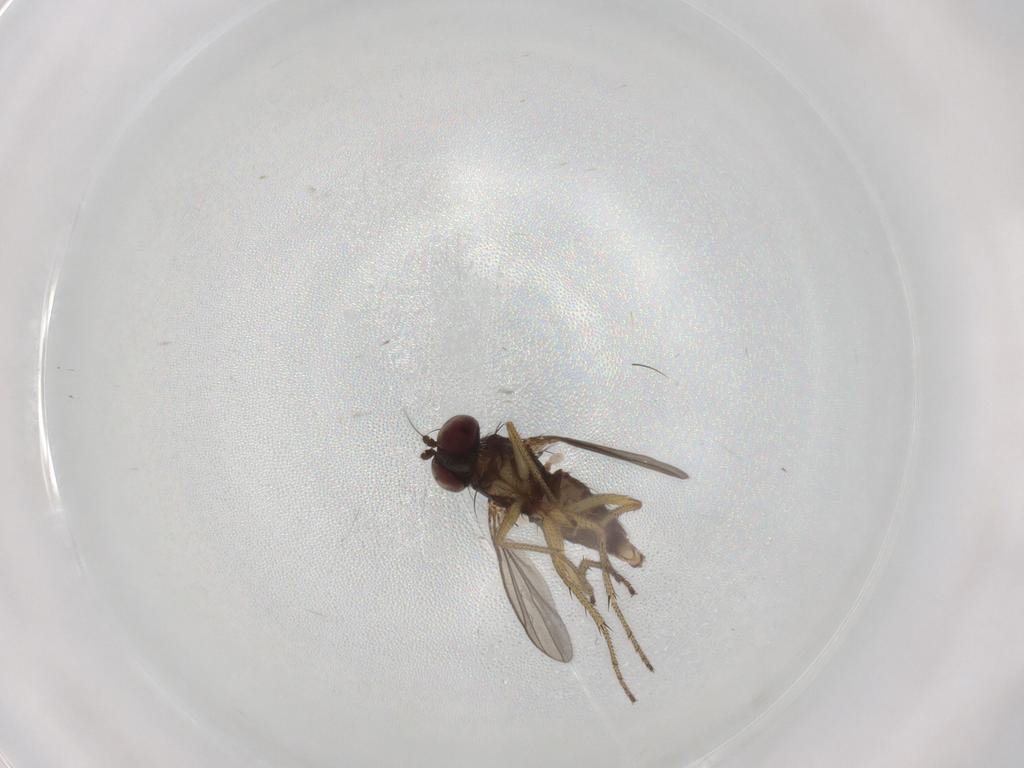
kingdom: Animalia
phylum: Arthropoda
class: Insecta
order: Diptera
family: Dolichopodidae
